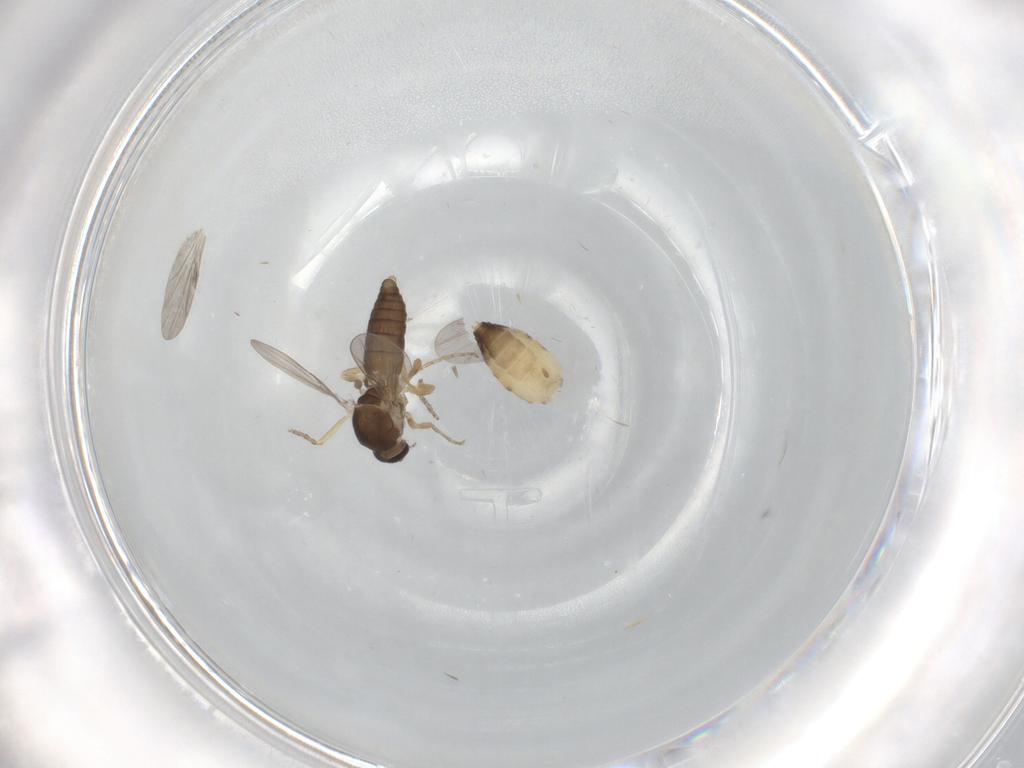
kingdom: Animalia
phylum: Arthropoda
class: Insecta
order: Diptera
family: Ceratopogonidae
